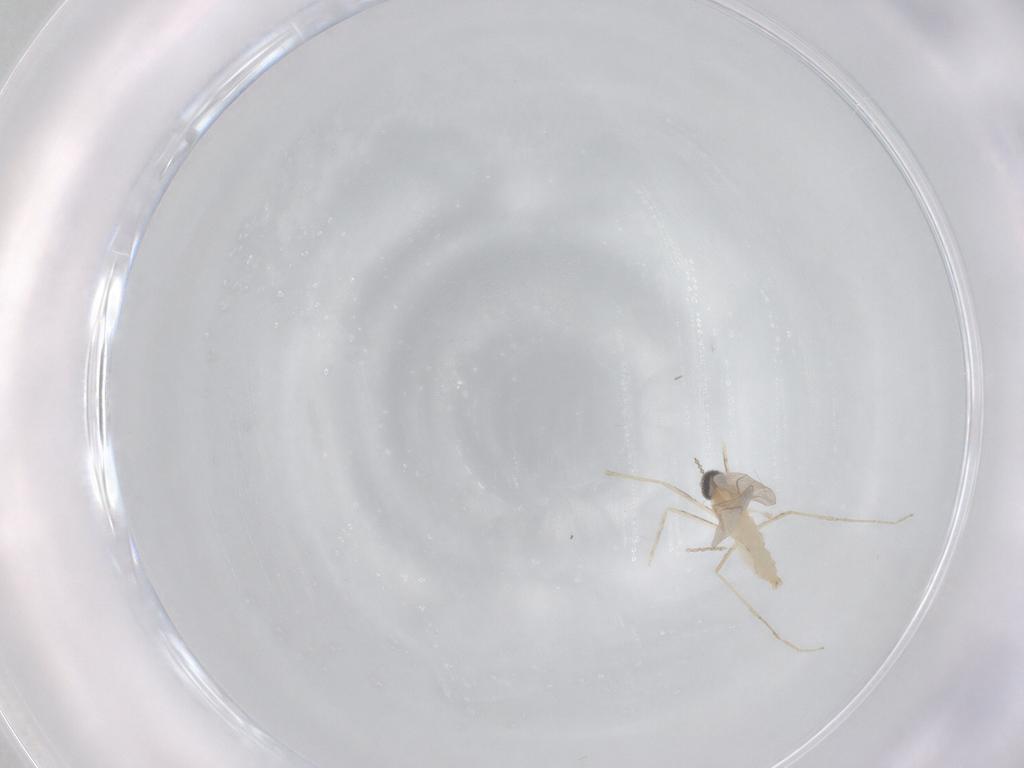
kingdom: Animalia
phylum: Arthropoda
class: Insecta
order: Diptera
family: Cecidomyiidae
